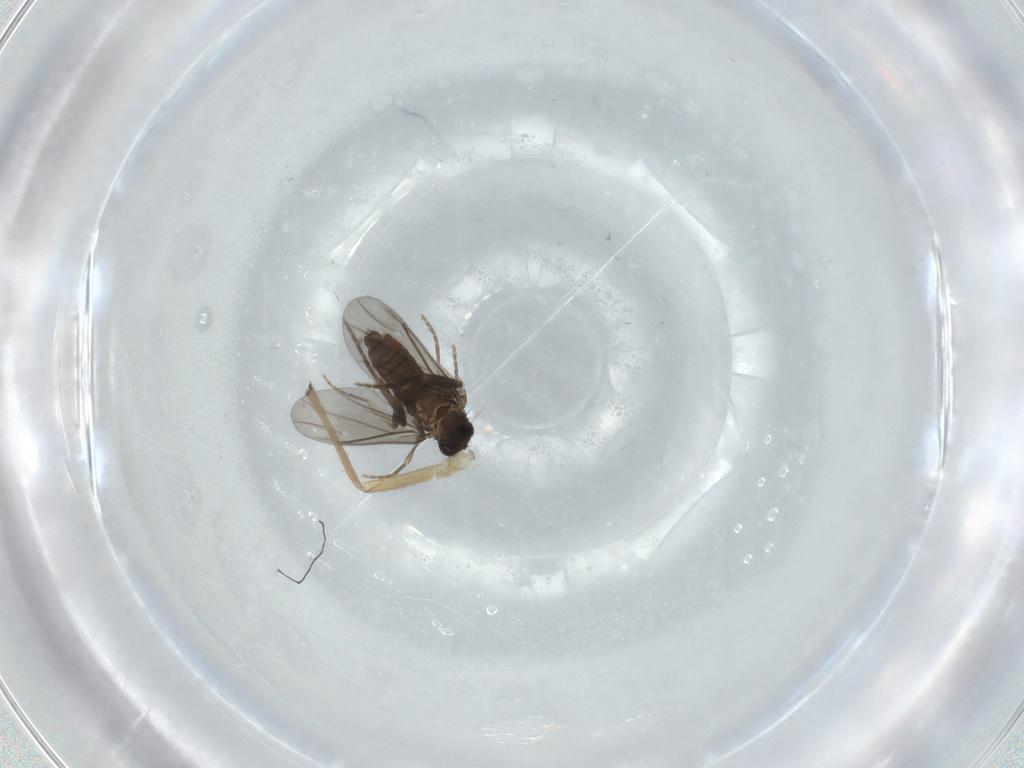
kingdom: Animalia
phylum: Arthropoda
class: Insecta
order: Diptera
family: Phoridae
